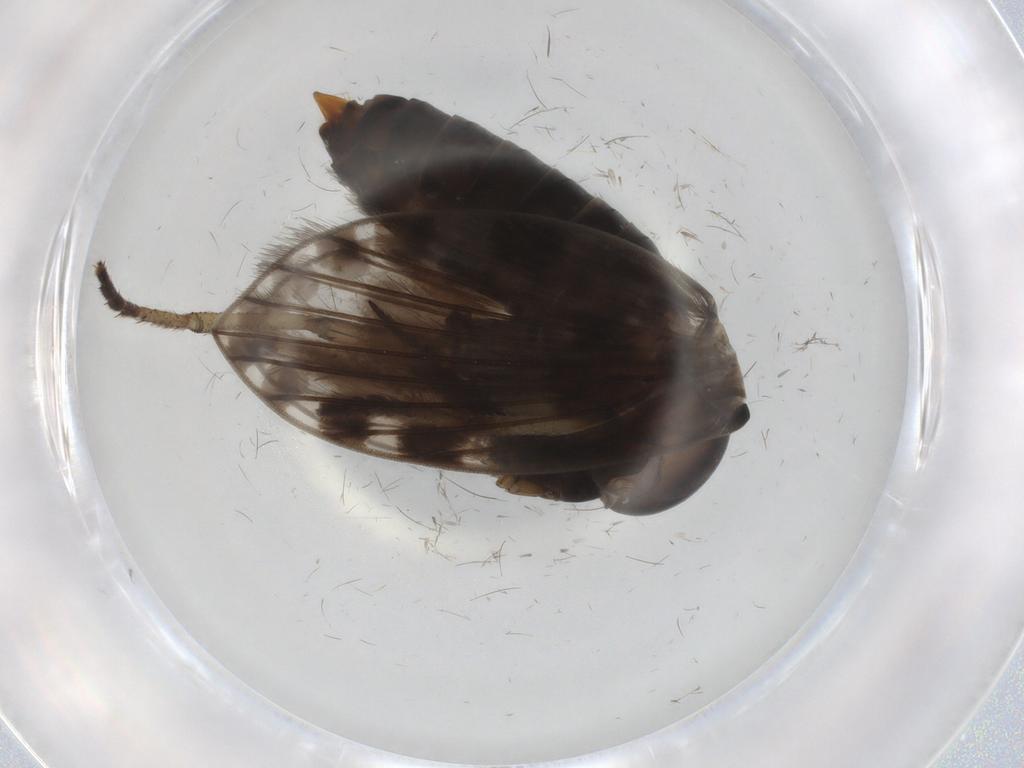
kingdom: Animalia
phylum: Arthropoda
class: Insecta
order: Diptera
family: Psychodidae
